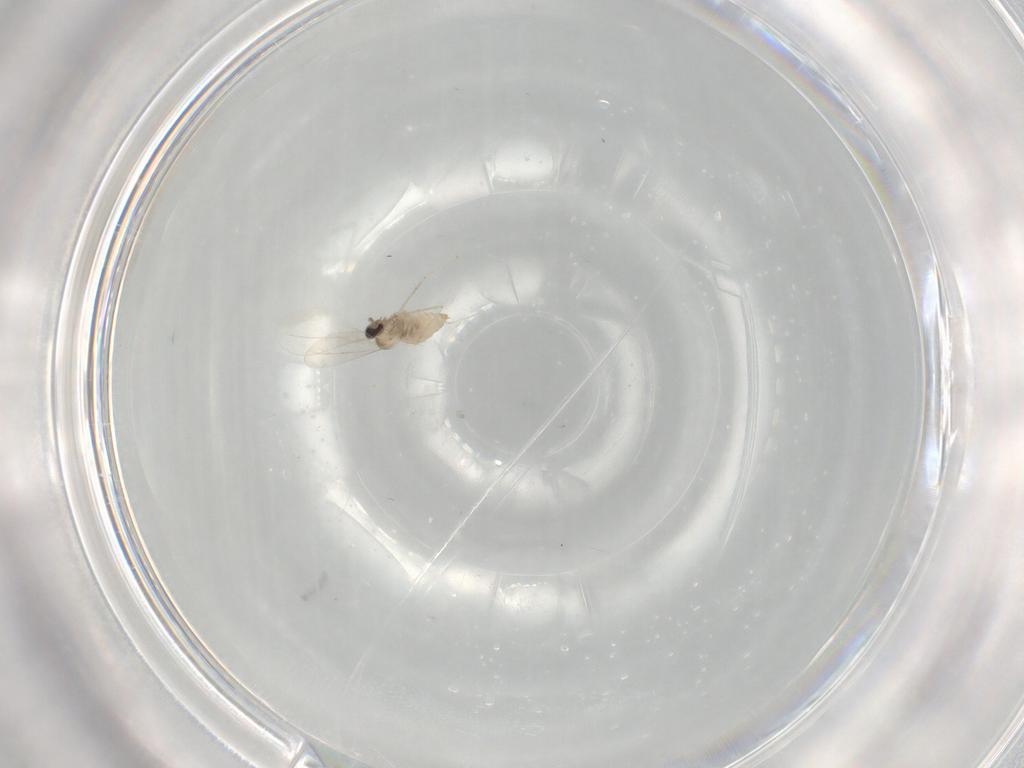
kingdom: Animalia
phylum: Arthropoda
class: Insecta
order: Diptera
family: Cecidomyiidae
